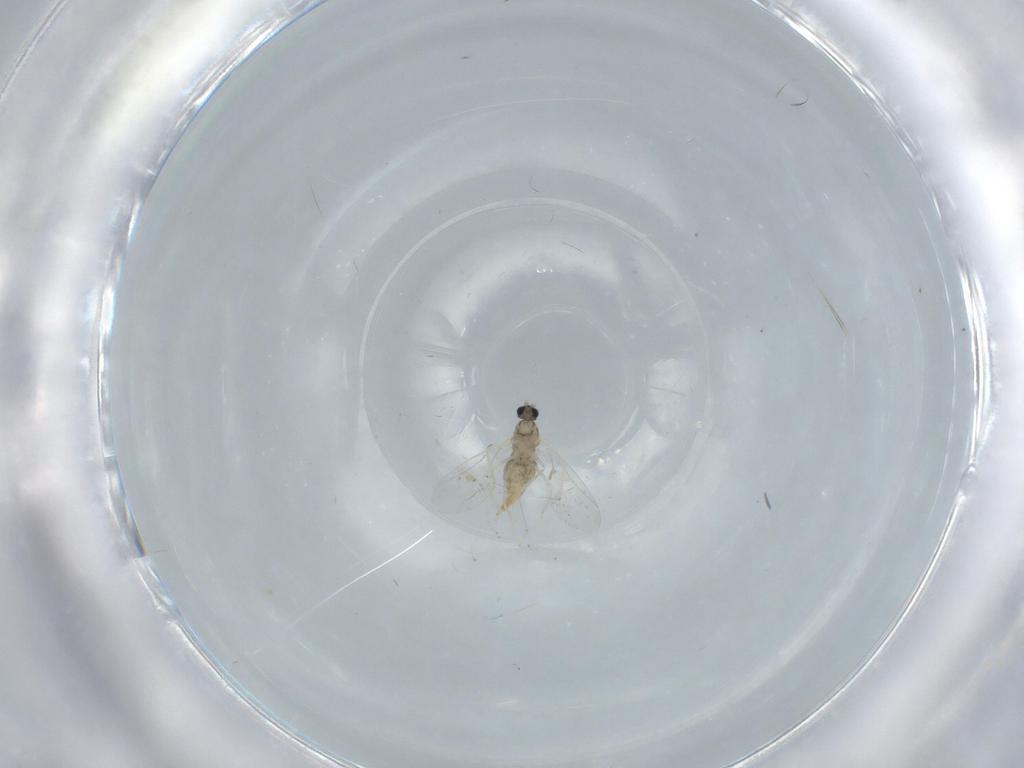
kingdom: Animalia
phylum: Arthropoda
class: Insecta
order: Diptera
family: Cecidomyiidae
